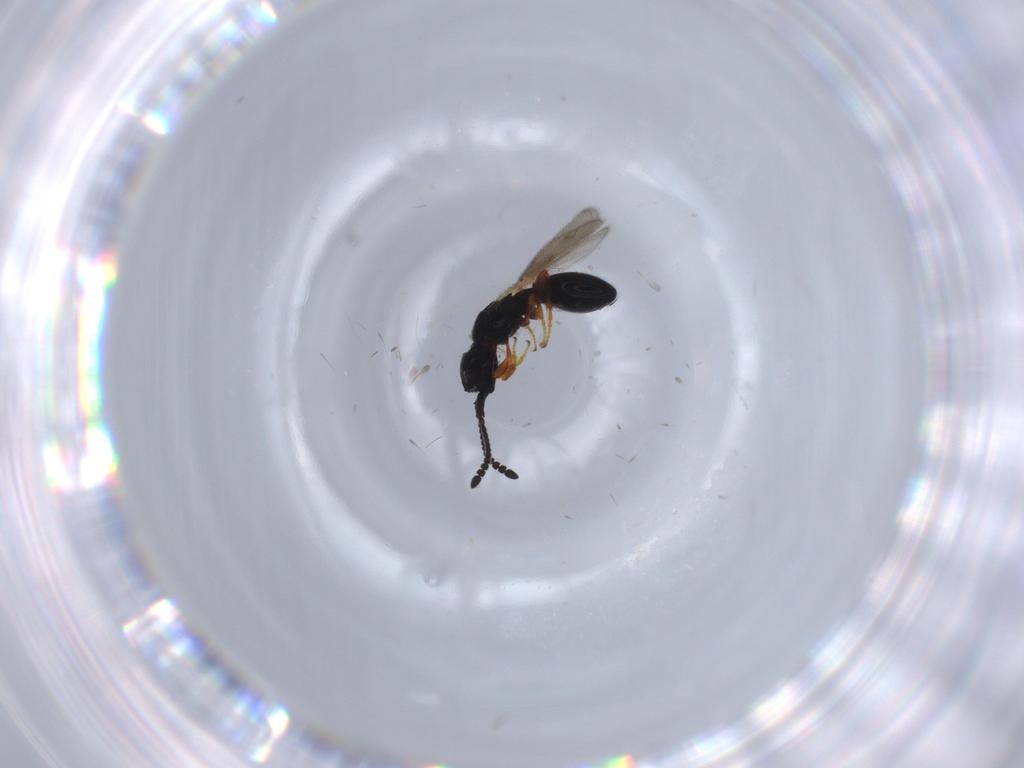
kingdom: Animalia
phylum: Arthropoda
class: Insecta
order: Hymenoptera
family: Diapriidae
